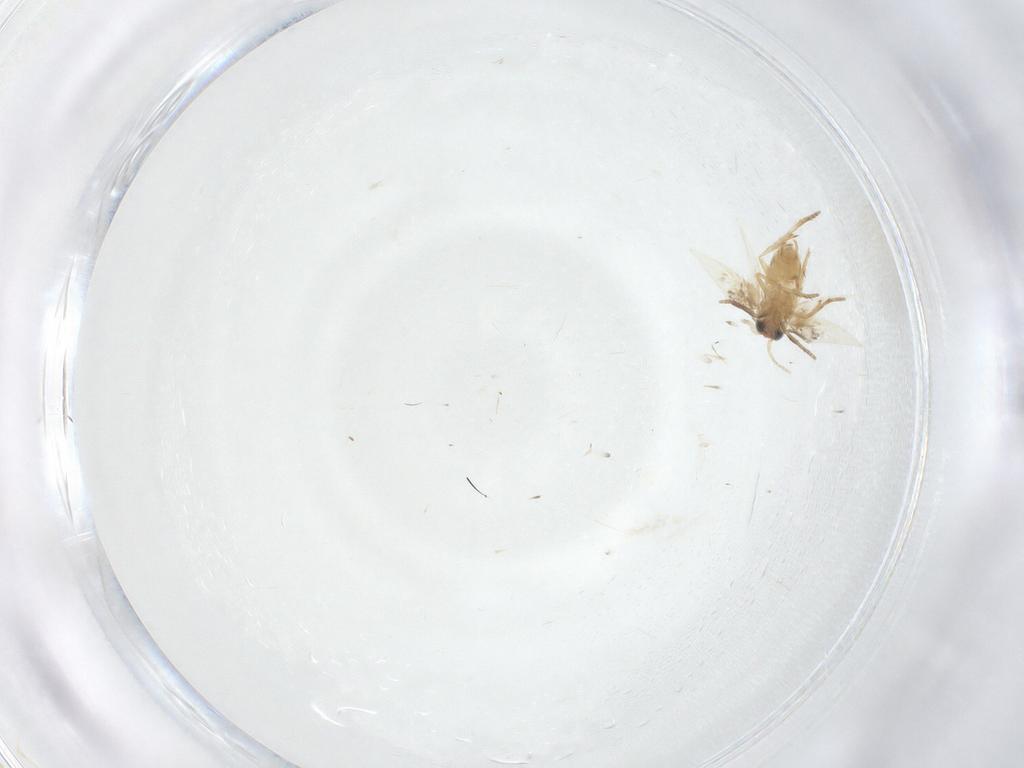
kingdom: Animalia
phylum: Arthropoda
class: Insecta
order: Lepidoptera
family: Nepticulidae
